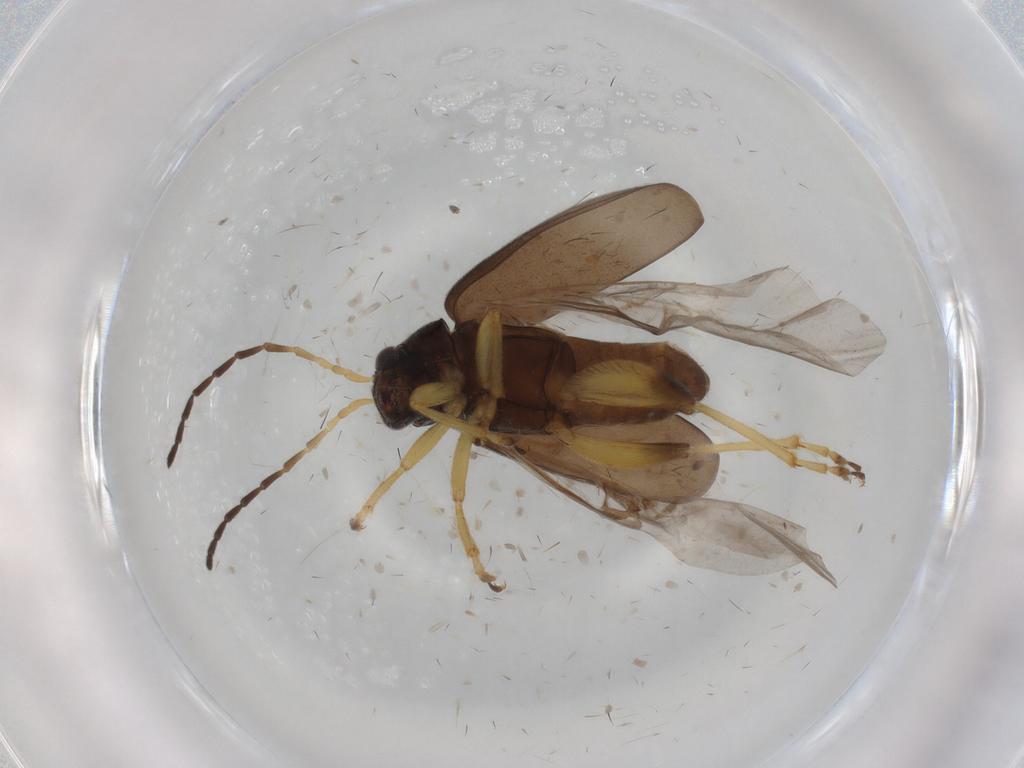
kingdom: Animalia
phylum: Arthropoda
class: Insecta
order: Coleoptera
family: Chrysomelidae
